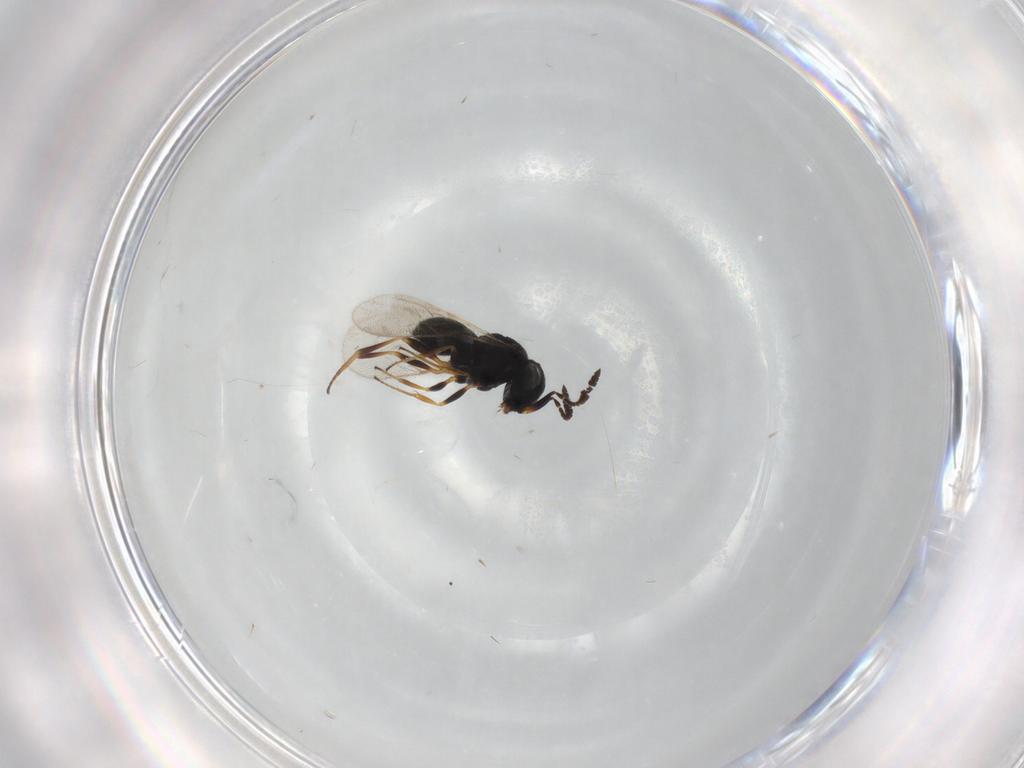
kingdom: Animalia
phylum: Arthropoda
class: Insecta
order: Hymenoptera
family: Scelionidae
